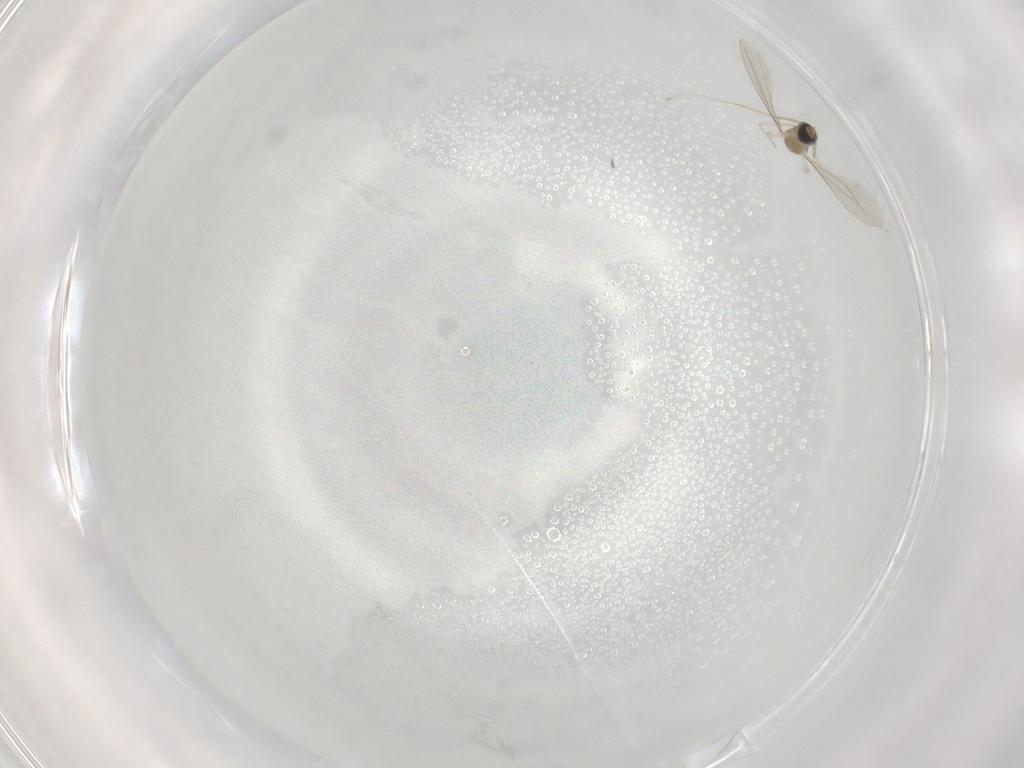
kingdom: Animalia
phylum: Arthropoda
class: Insecta
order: Diptera
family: Cecidomyiidae
